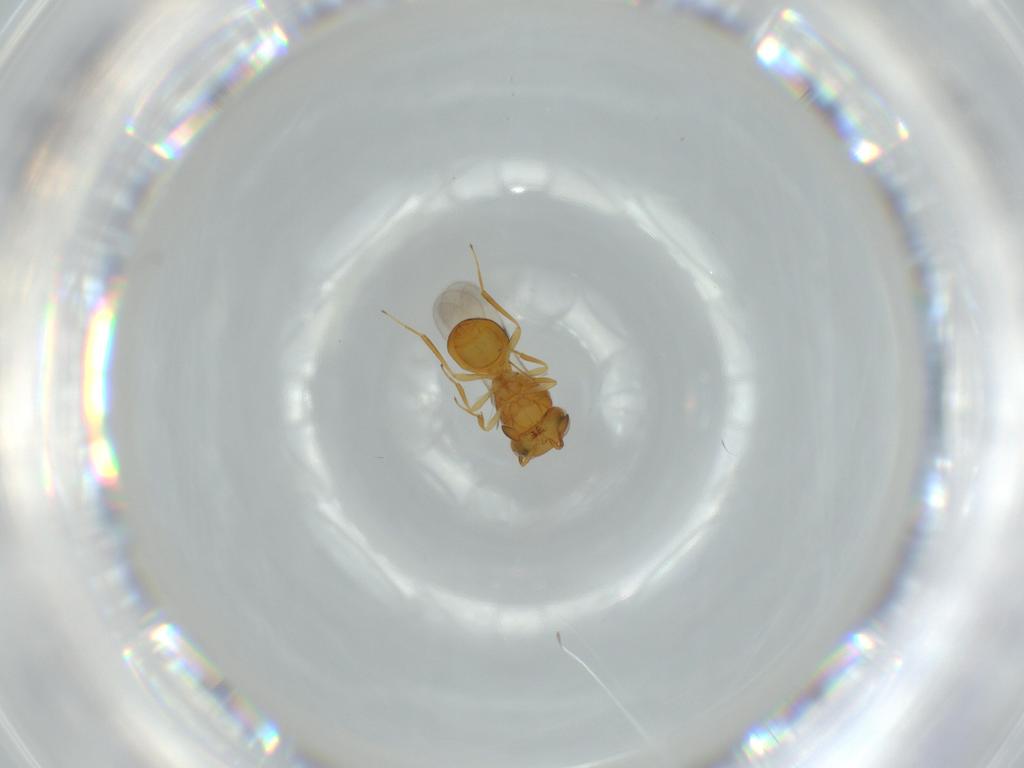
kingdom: Animalia
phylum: Arthropoda
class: Insecta
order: Hymenoptera
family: Scelionidae
